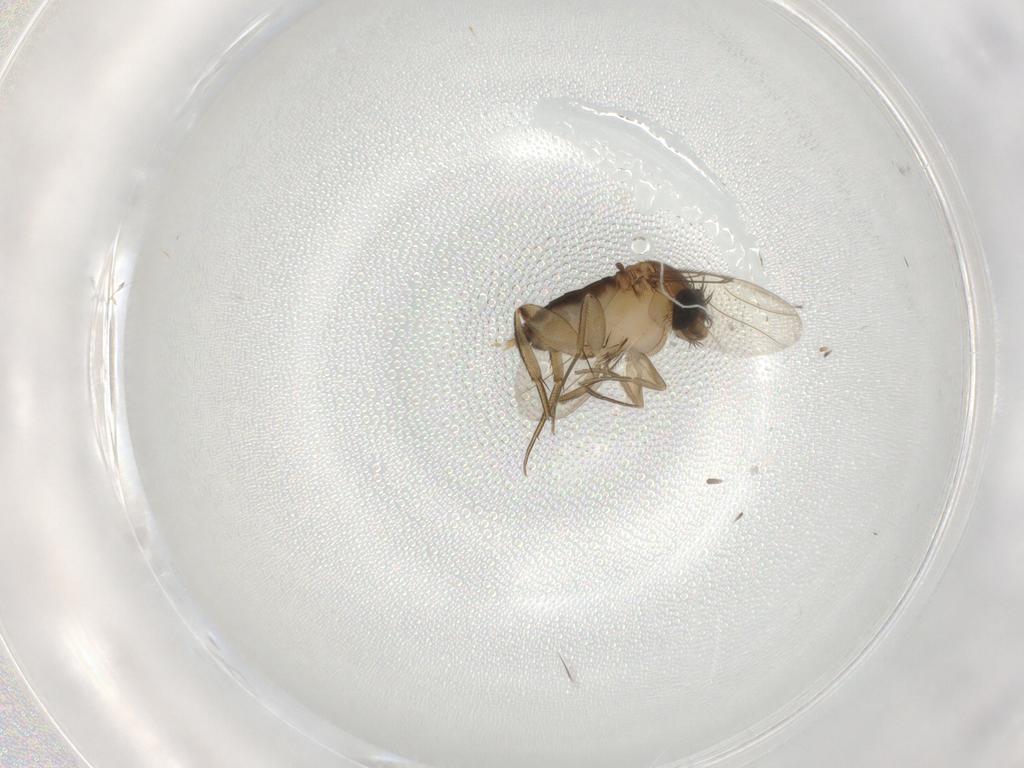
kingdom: Animalia
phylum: Arthropoda
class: Insecta
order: Diptera
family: Phoridae
